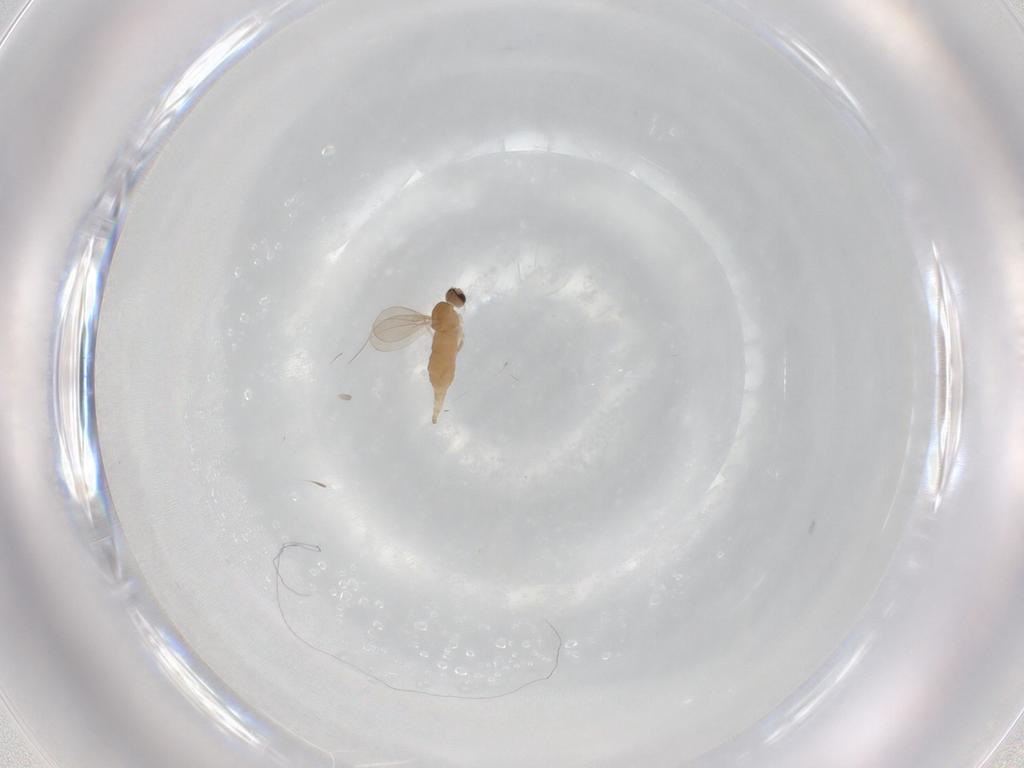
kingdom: Animalia
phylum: Arthropoda
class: Insecta
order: Diptera
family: Cecidomyiidae
